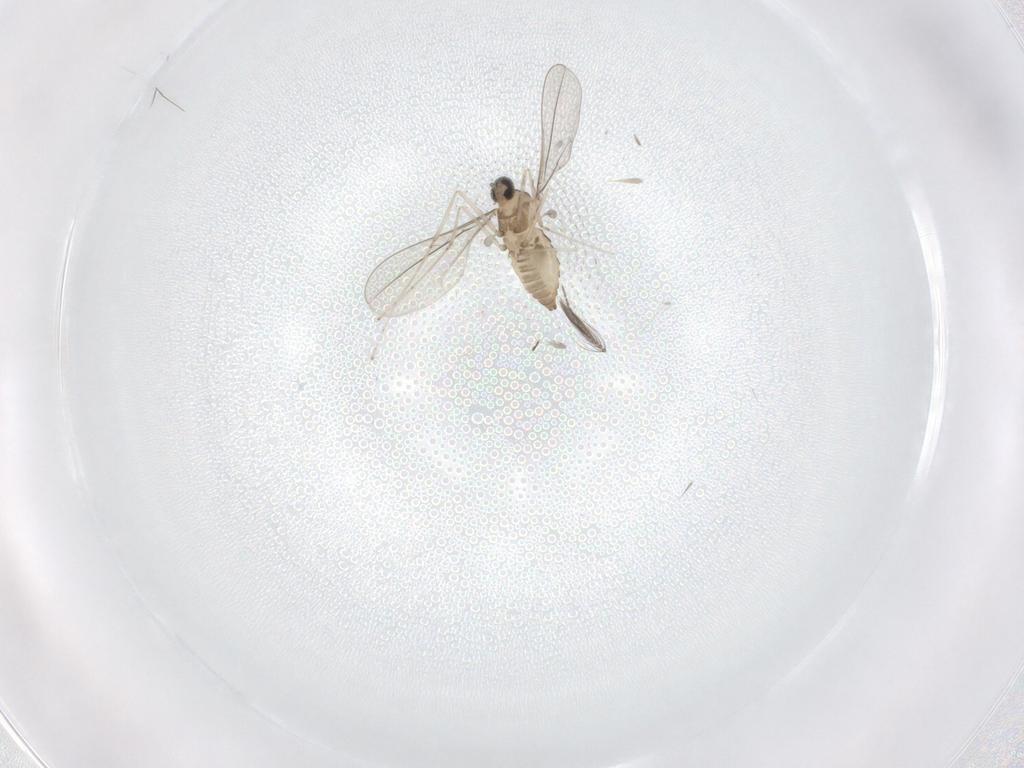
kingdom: Animalia
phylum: Arthropoda
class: Insecta
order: Diptera
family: Cecidomyiidae
